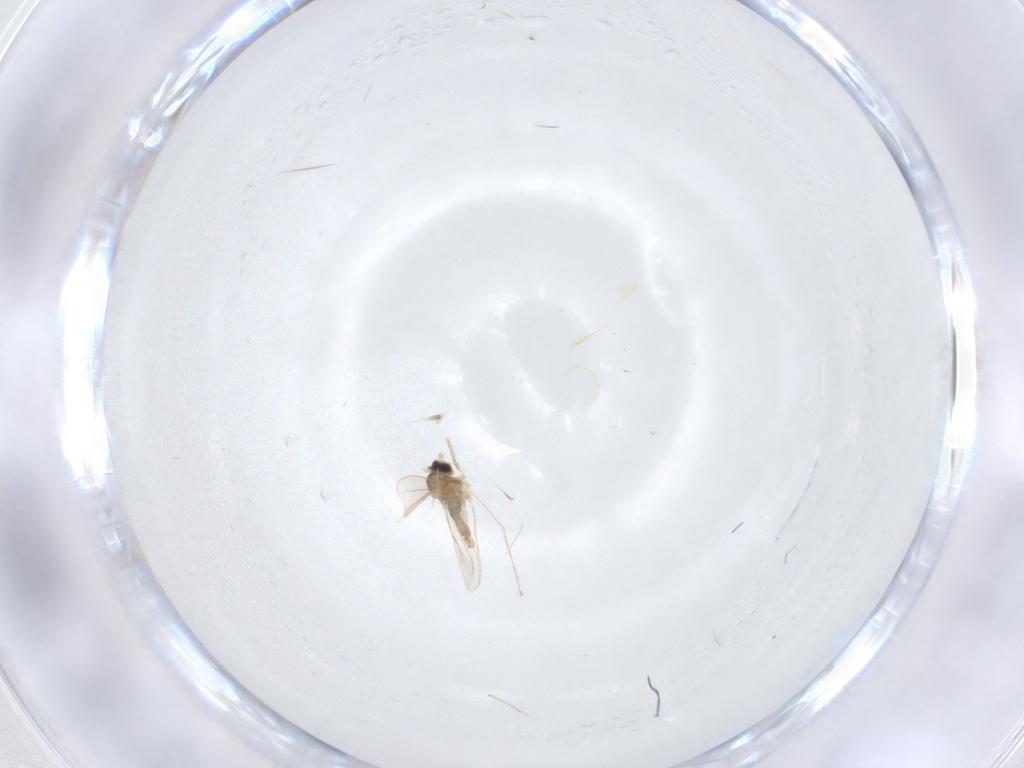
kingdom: Animalia
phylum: Arthropoda
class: Insecta
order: Diptera
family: Cecidomyiidae
